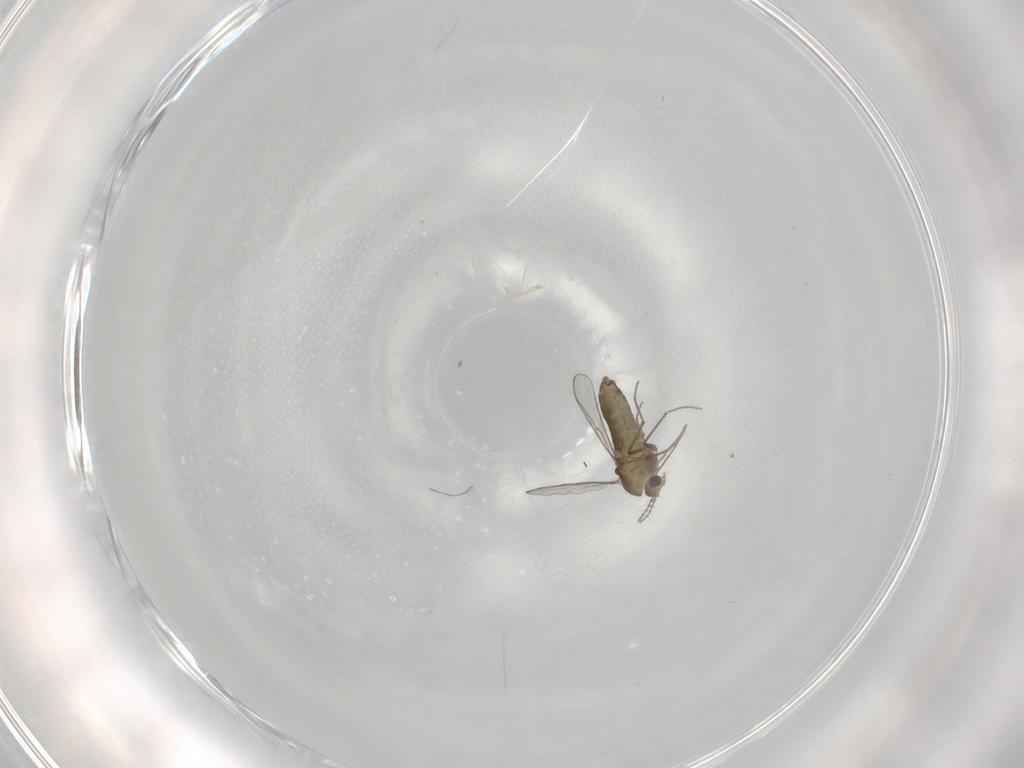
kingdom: Animalia
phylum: Arthropoda
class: Insecta
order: Diptera
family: Chironomidae
